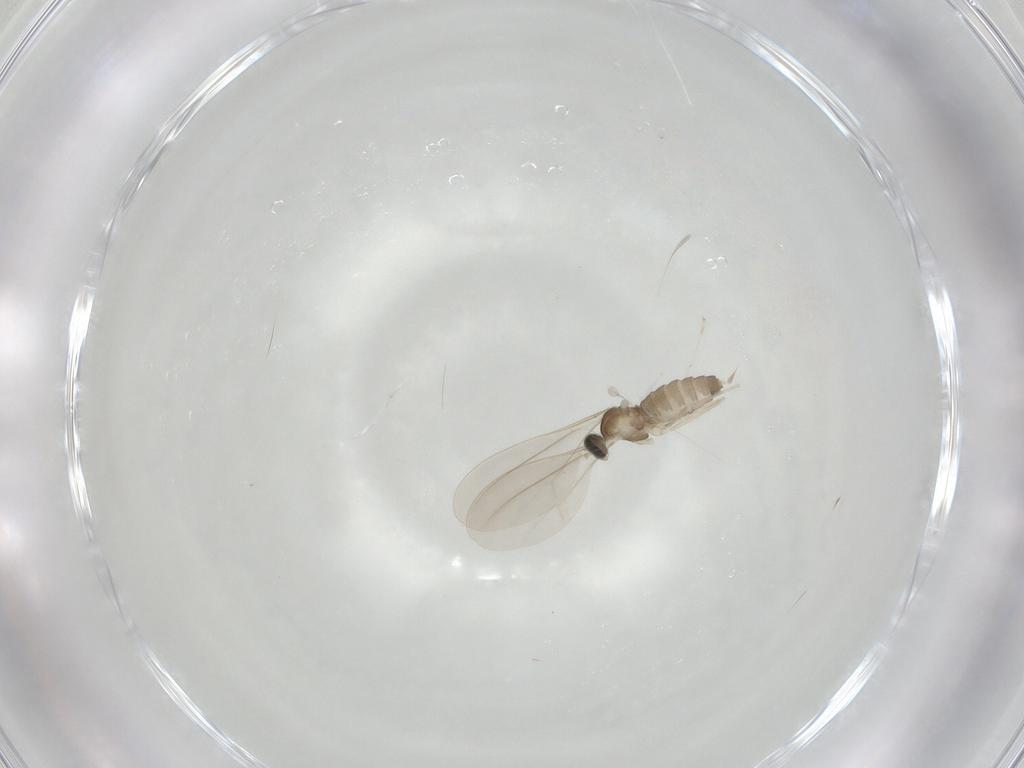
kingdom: Animalia
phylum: Arthropoda
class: Insecta
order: Diptera
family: Cecidomyiidae
